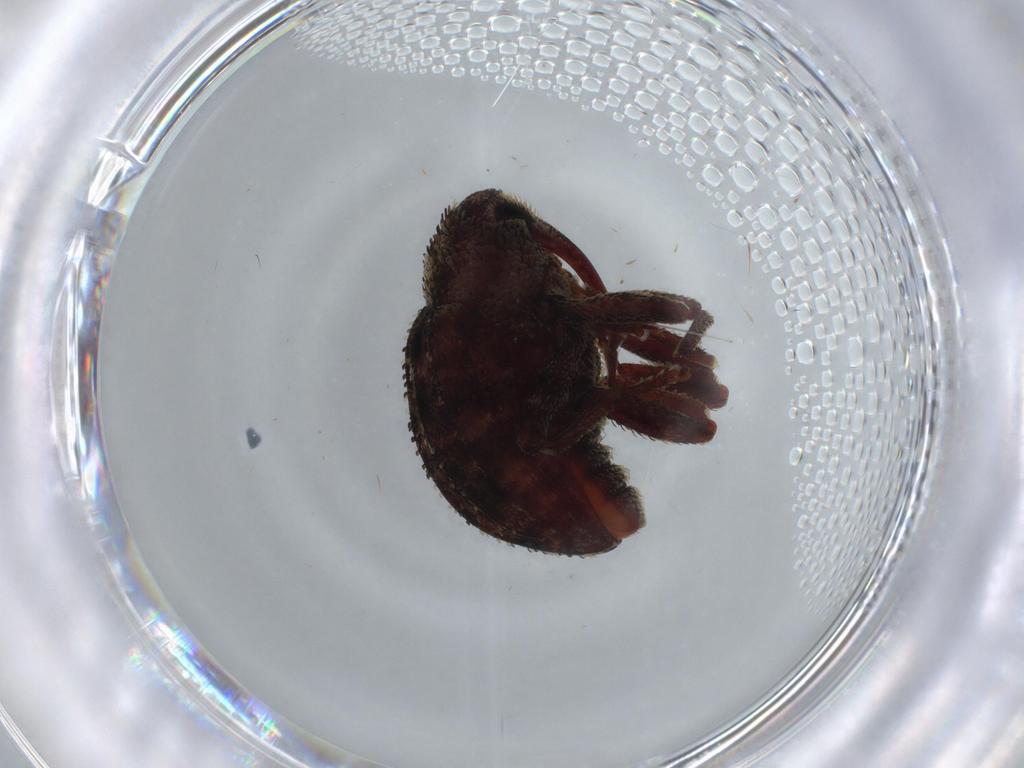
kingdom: Animalia
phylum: Arthropoda
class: Insecta
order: Coleoptera
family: Curculionidae
